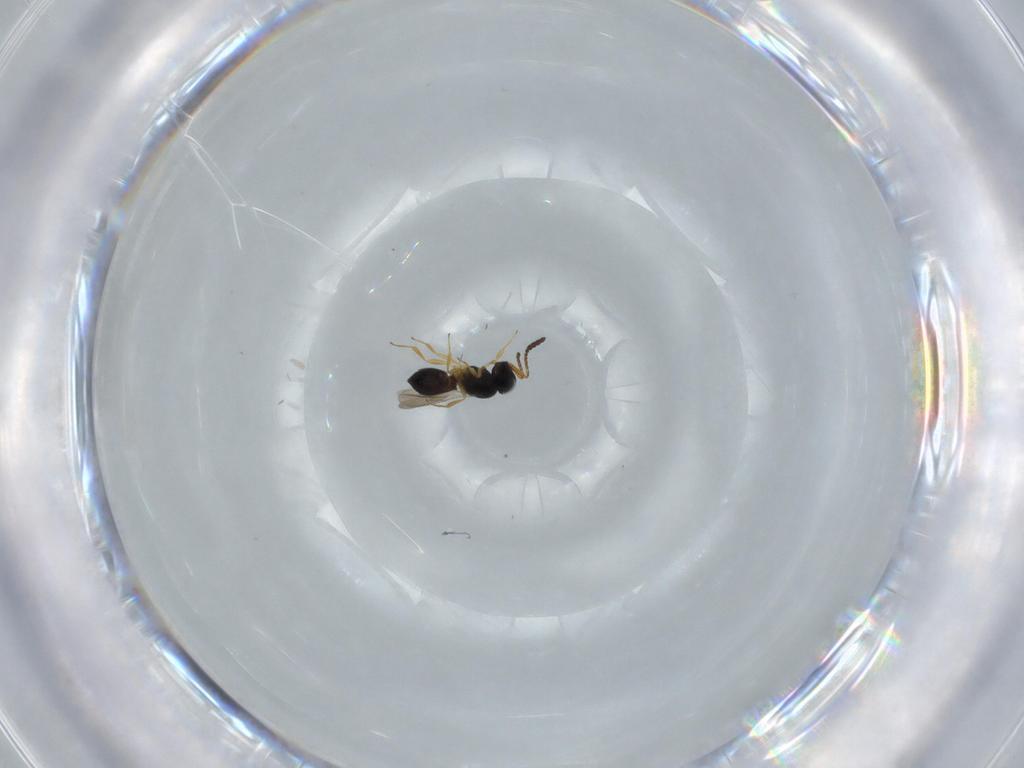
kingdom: Animalia
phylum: Arthropoda
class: Insecta
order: Hymenoptera
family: Scelionidae
